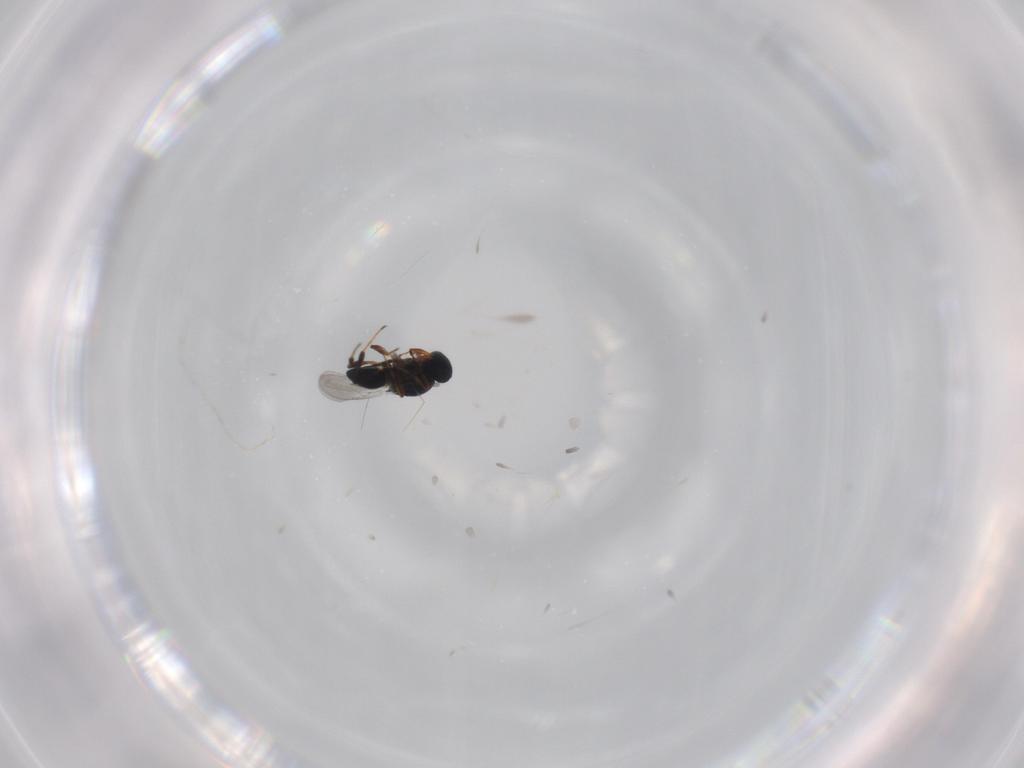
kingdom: Animalia
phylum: Arthropoda
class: Insecta
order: Hymenoptera
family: Platygastridae
